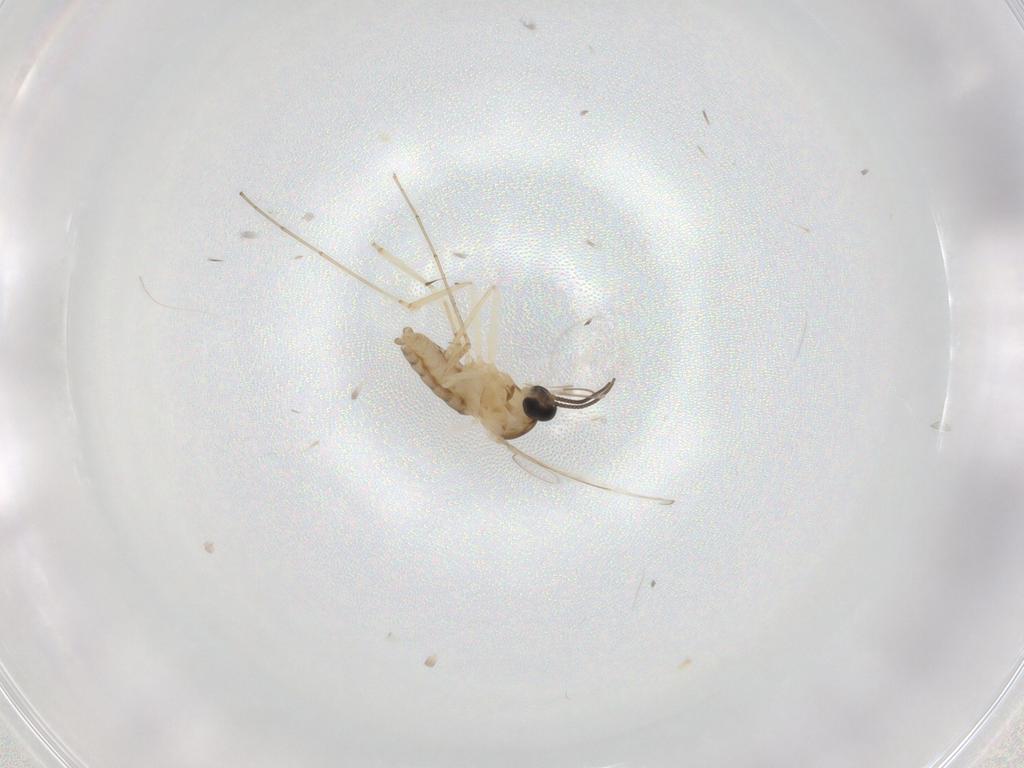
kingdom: Animalia
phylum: Arthropoda
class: Insecta
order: Diptera
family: Cecidomyiidae
